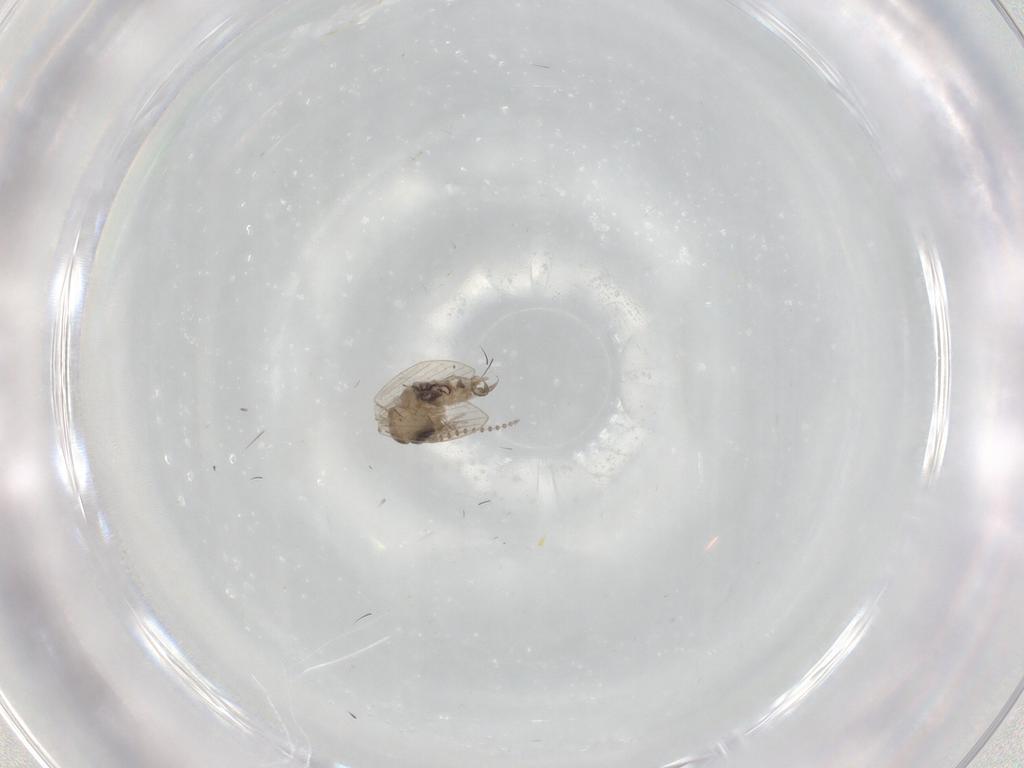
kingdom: Animalia
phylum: Arthropoda
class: Insecta
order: Diptera
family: Psychodidae
